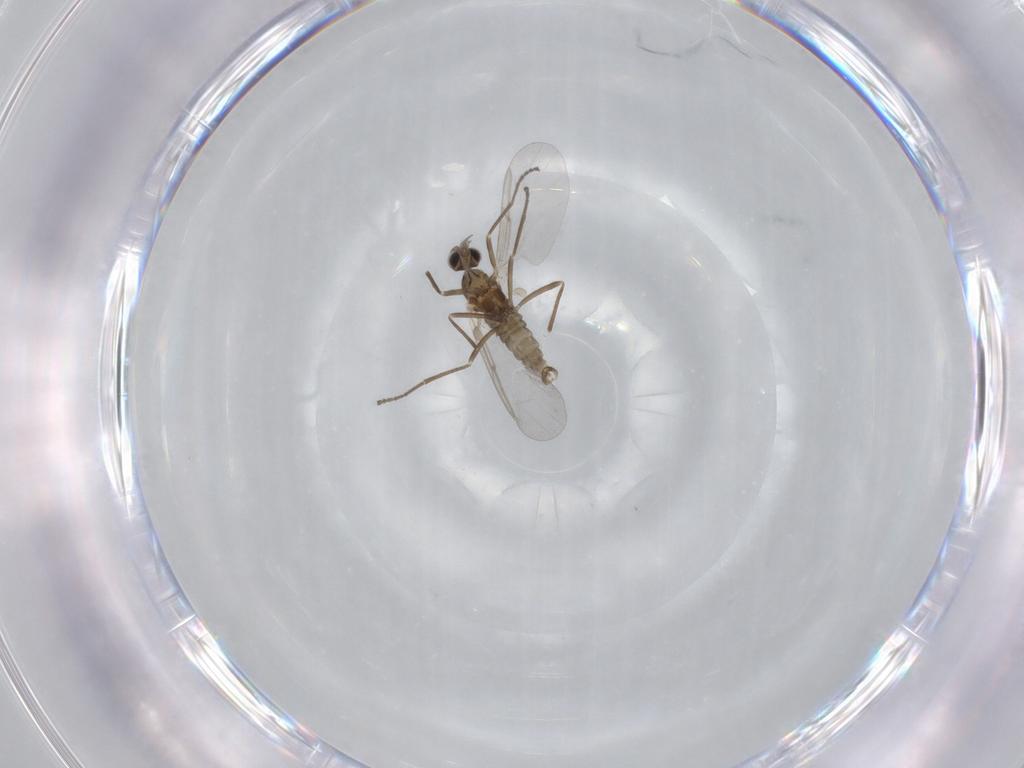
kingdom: Animalia
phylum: Arthropoda
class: Insecta
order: Diptera
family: Cecidomyiidae
